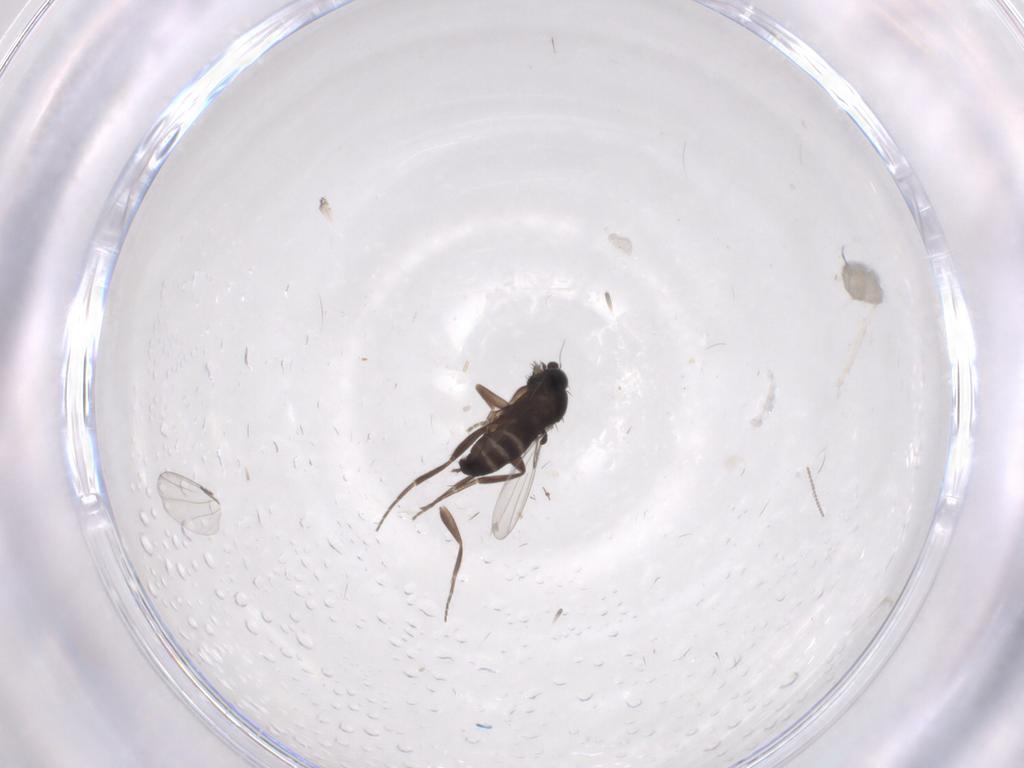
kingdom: Animalia
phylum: Arthropoda
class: Insecta
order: Diptera
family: Phoridae
